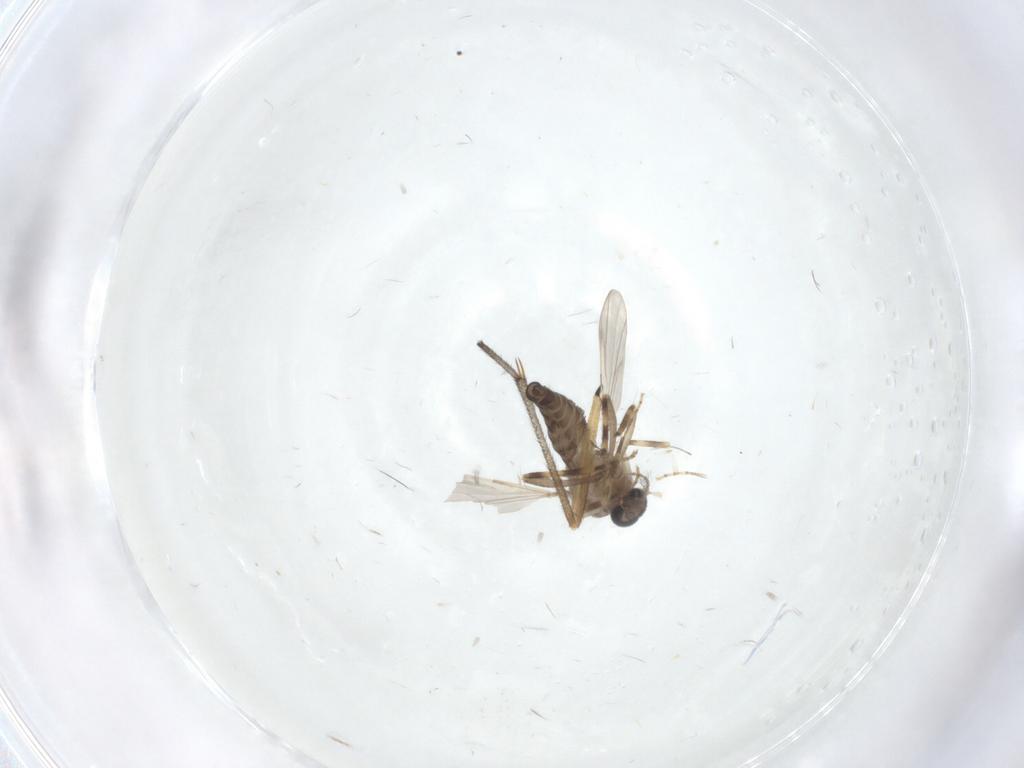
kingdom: Animalia
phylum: Arthropoda
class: Insecta
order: Diptera
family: Ceratopogonidae
